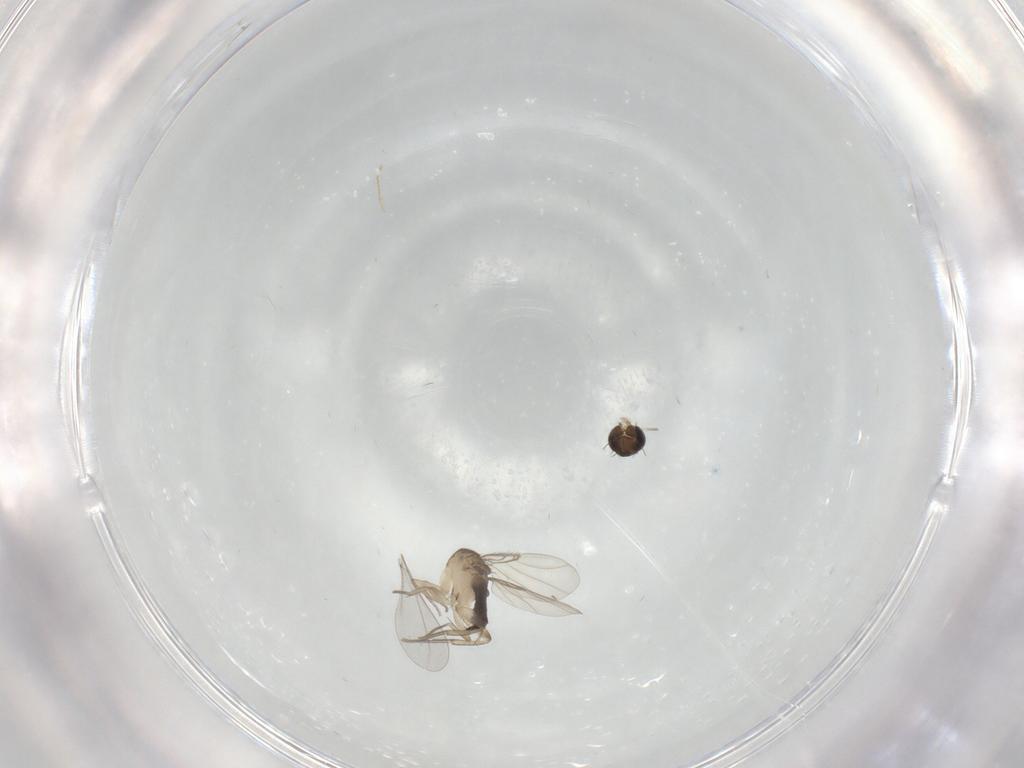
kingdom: Animalia
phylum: Arthropoda
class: Insecta
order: Diptera
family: Phoridae
